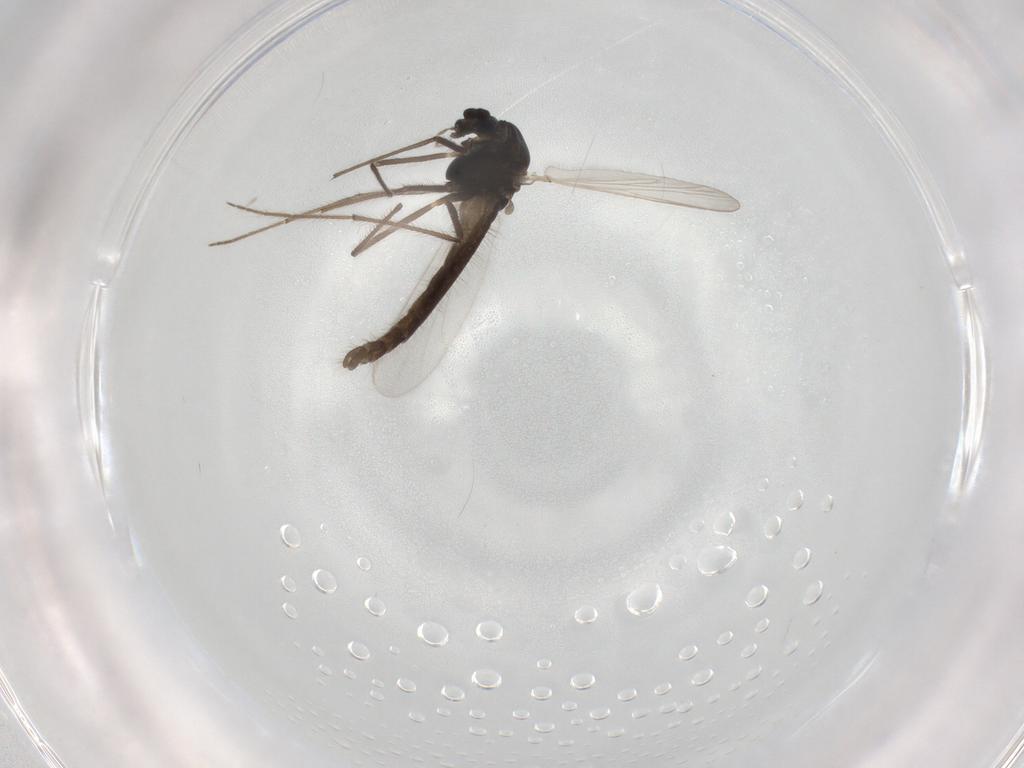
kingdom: Animalia
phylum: Arthropoda
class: Insecta
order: Diptera
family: Chironomidae
